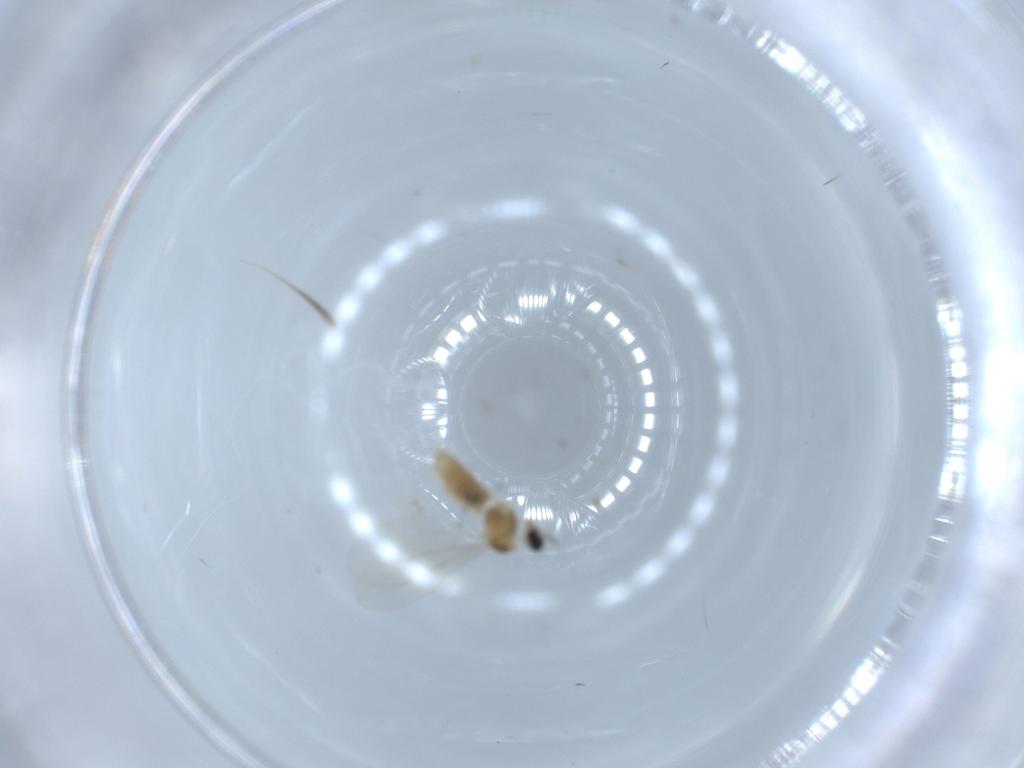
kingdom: Animalia
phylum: Arthropoda
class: Insecta
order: Diptera
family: Cecidomyiidae
